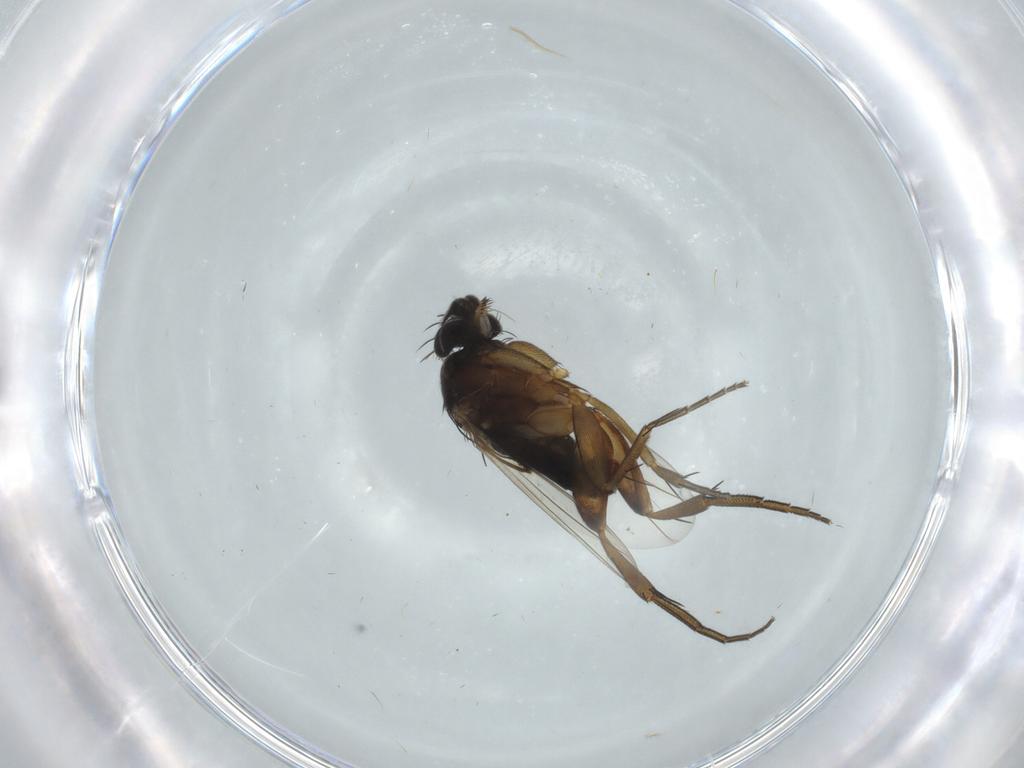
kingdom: Animalia
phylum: Arthropoda
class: Insecta
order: Diptera
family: Phoridae
